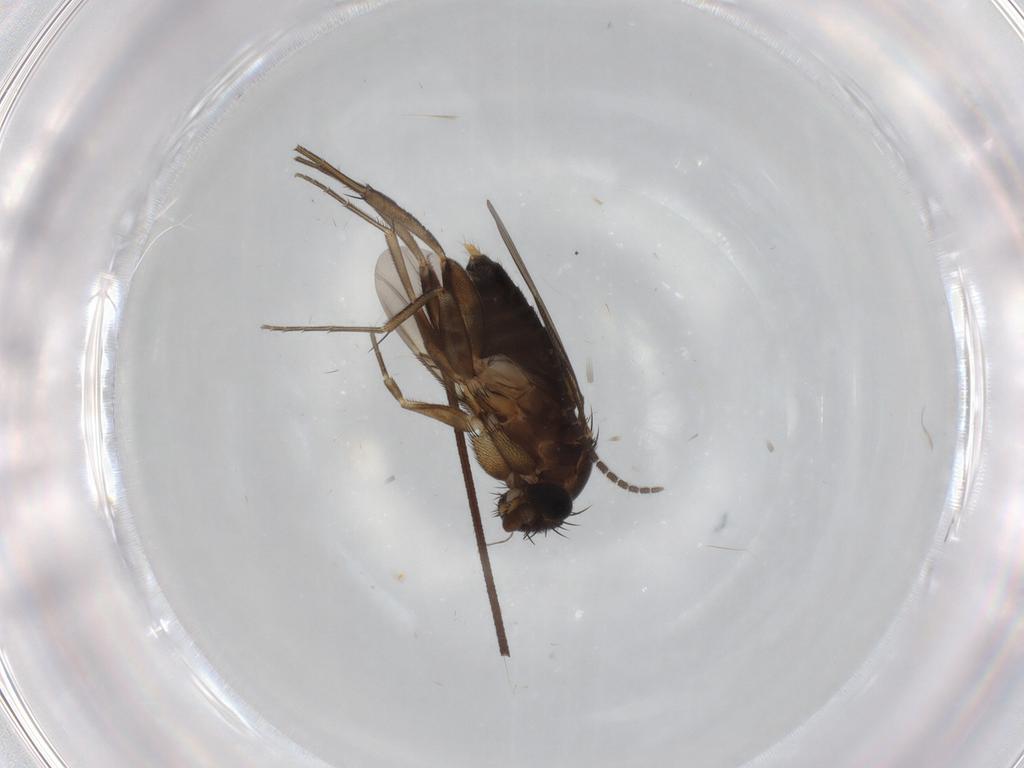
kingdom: Animalia
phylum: Arthropoda
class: Insecta
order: Diptera
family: Phoridae
